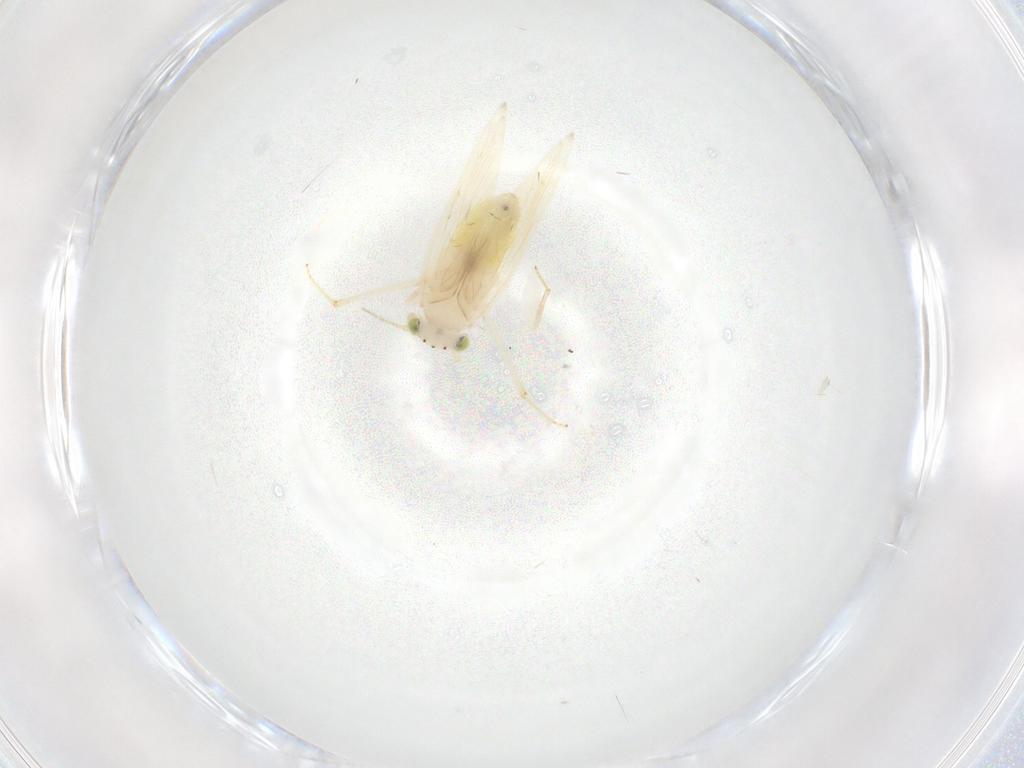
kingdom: Animalia
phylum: Arthropoda
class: Insecta
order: Psocodea
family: Lepidopsocidae
